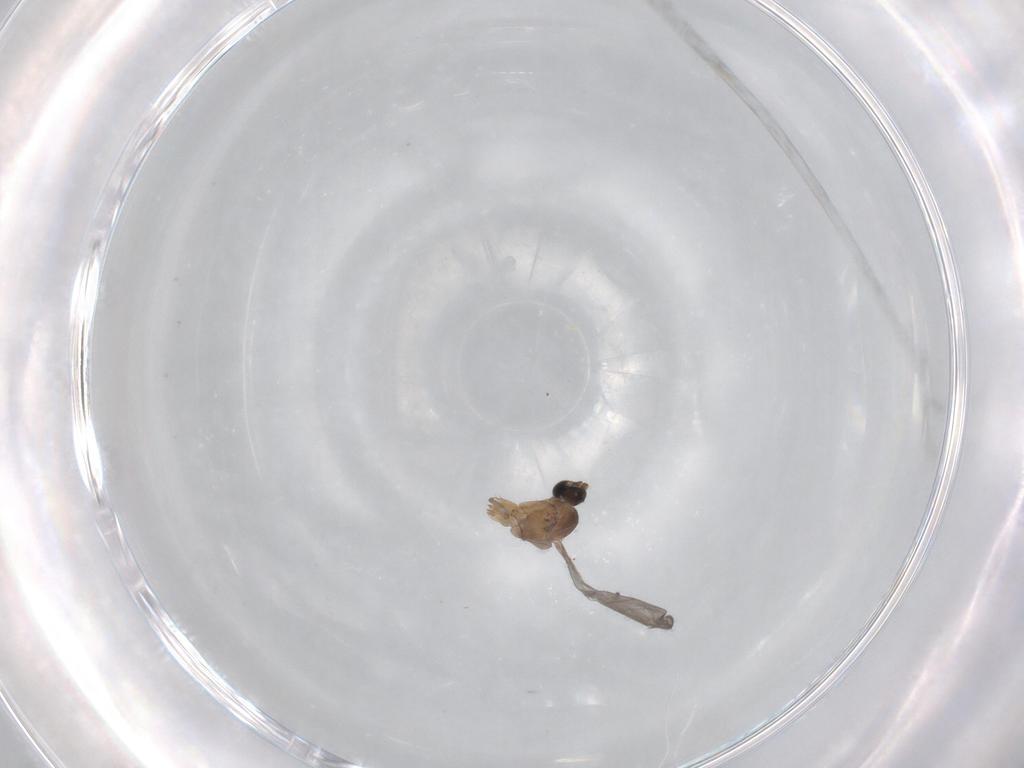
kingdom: Animalia
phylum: Arthropoda
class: Insecta
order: Diptera
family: Sciaridae
